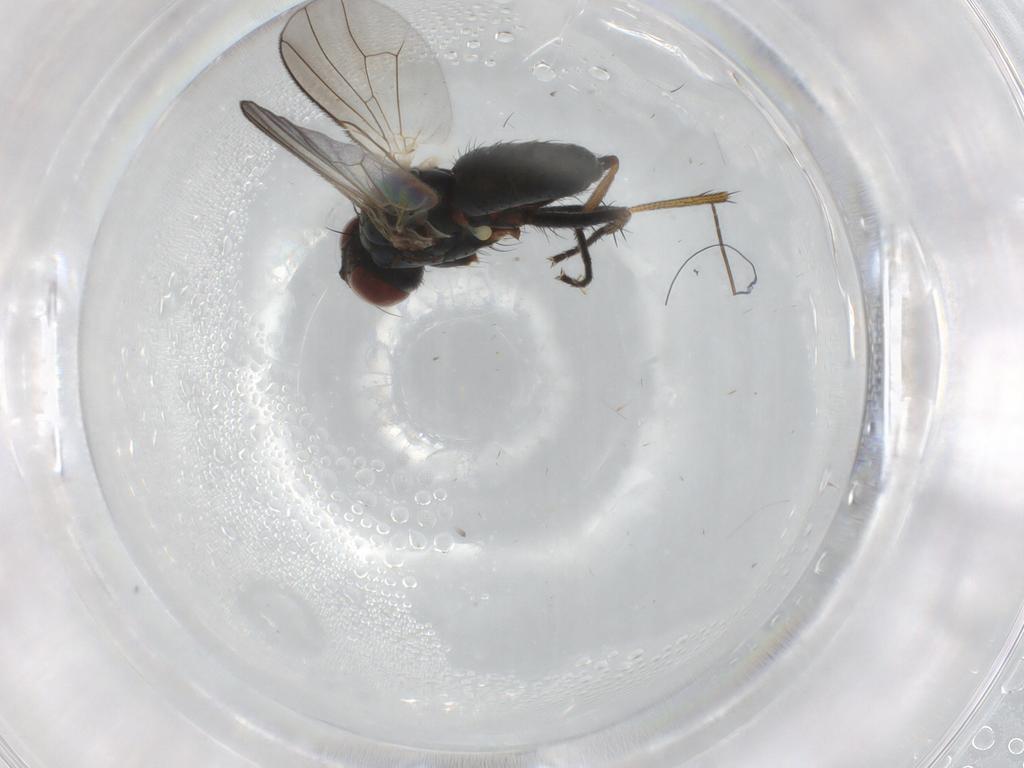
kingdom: Animalia
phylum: Arthropoda
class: Insecta
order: Diptera
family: Muscidae
